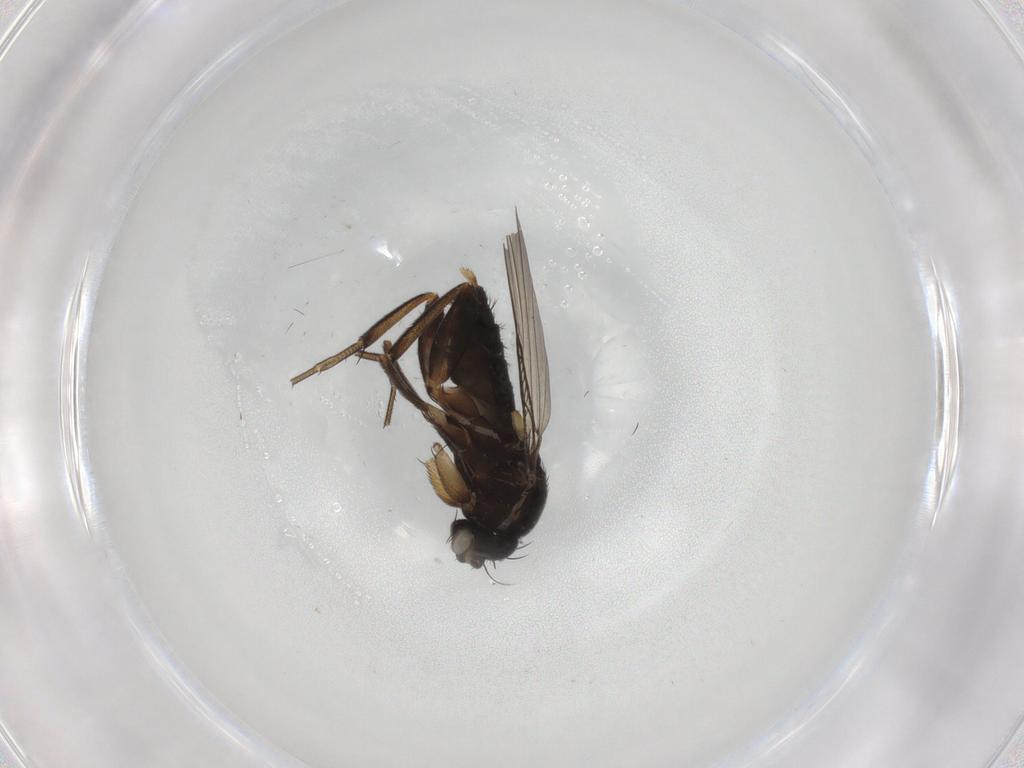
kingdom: Animalia
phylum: Arthropoda
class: Insecta
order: Diptera
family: Phoridae
